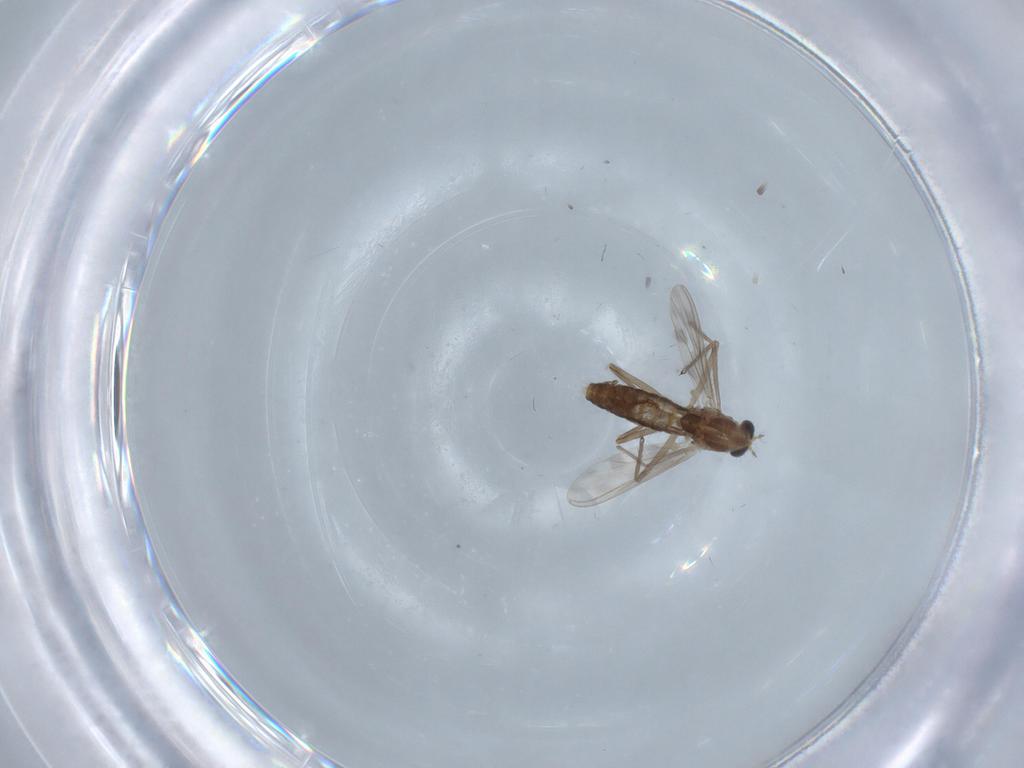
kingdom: Animalia
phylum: Arthropoda
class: Insecta
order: Diptera
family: Chironomidae
